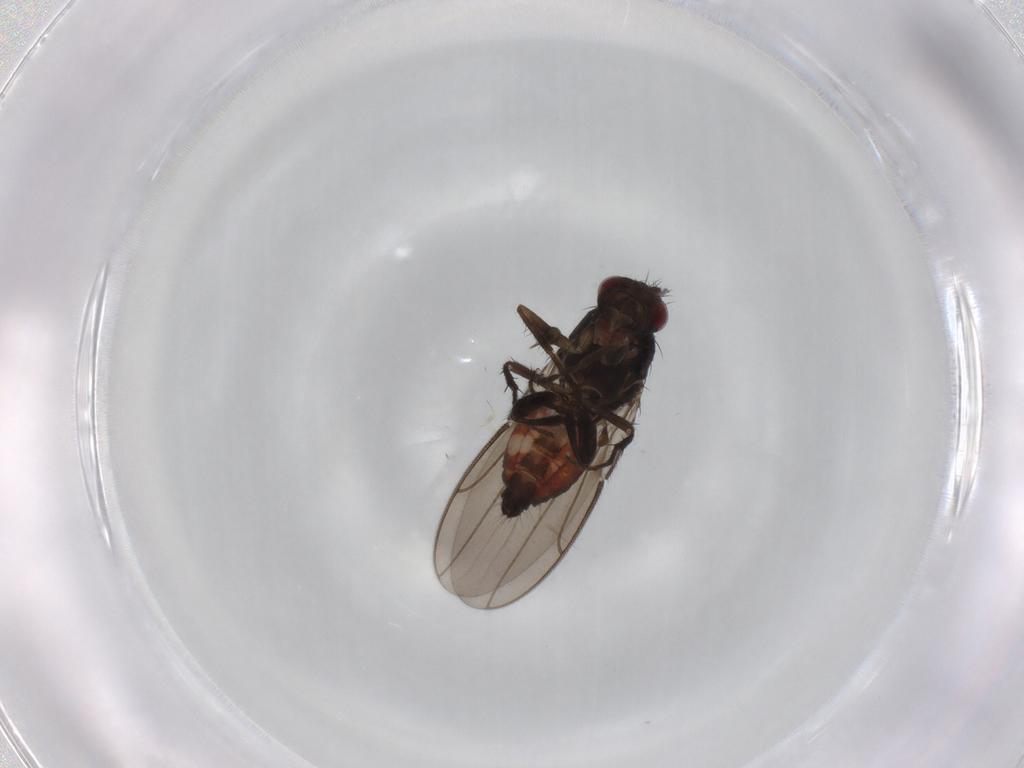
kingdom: Animalia
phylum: Arthropoda
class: Insecta
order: Diptera
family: Sphaeroceridae
